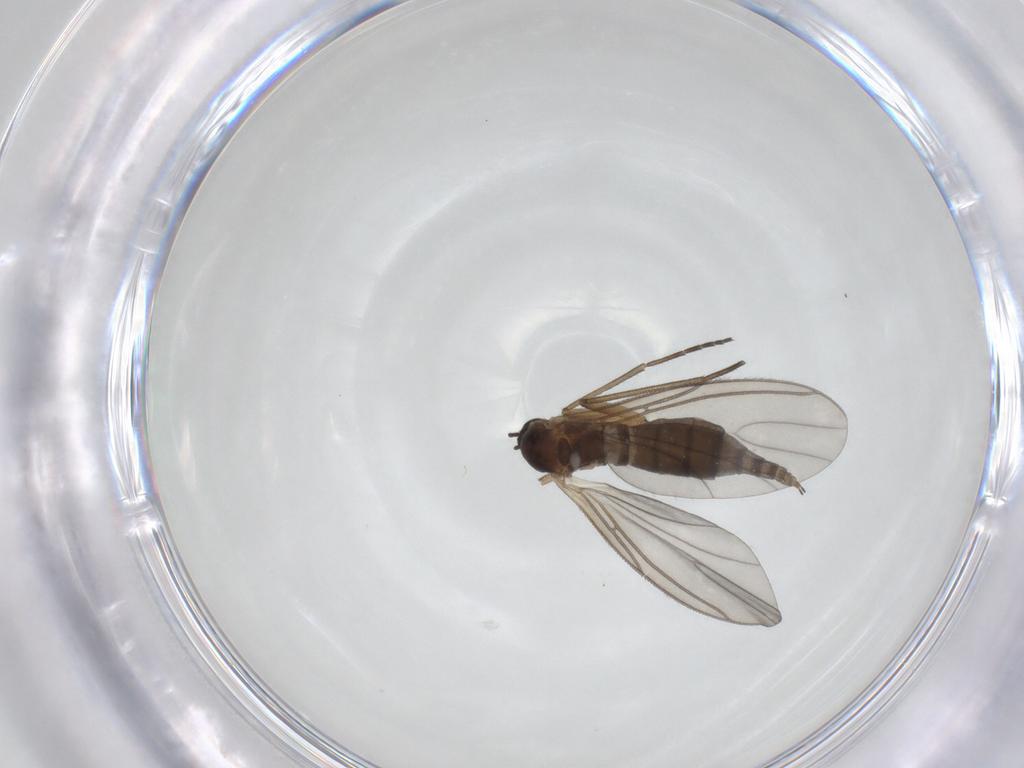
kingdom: Animalia
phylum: Arthropoda
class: Insecta
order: Diptera
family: Sciaridae
